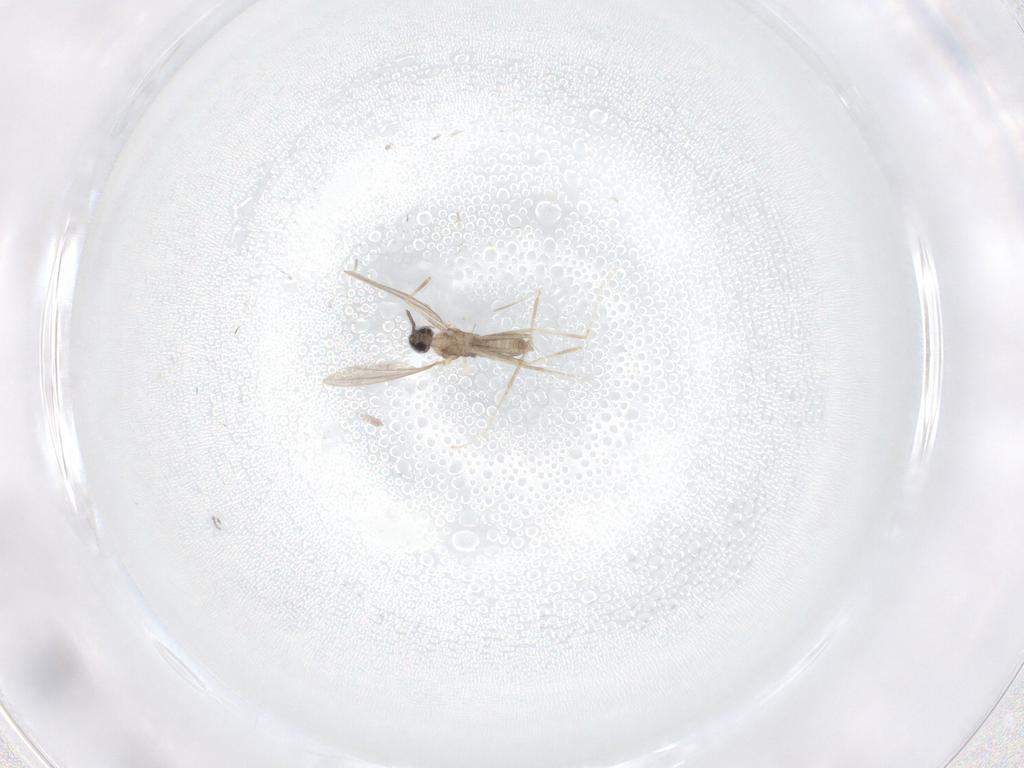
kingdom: Animalia
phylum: Arthropoda
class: Insecta
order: Diptera
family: Cecidomyiidae
